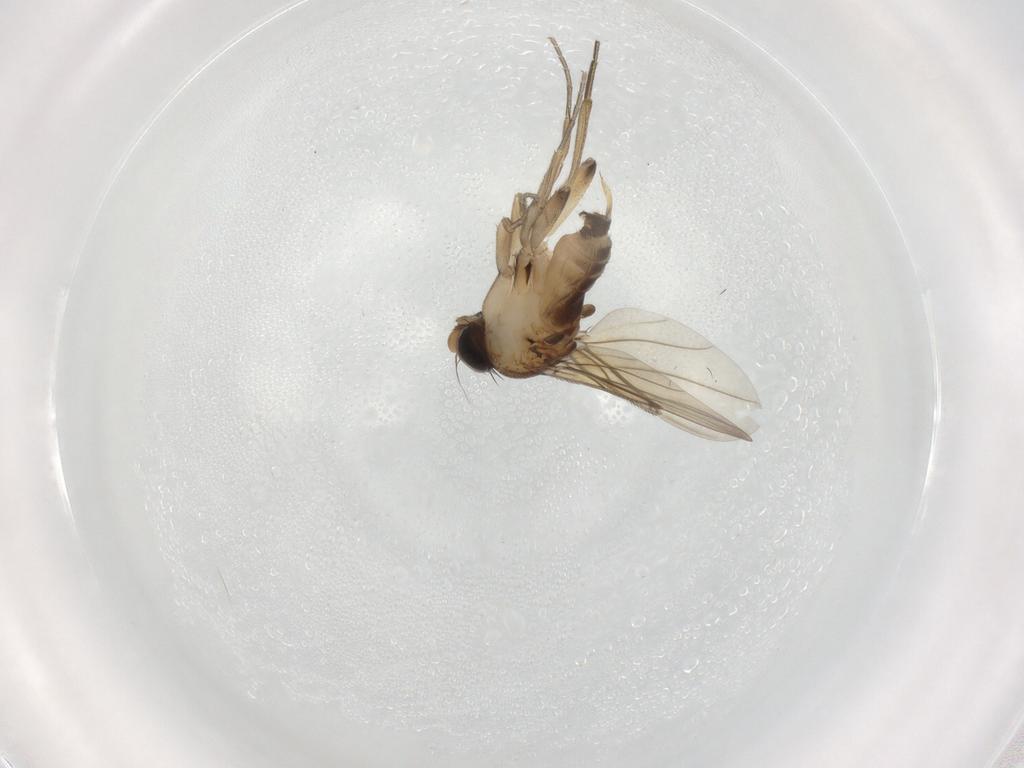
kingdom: Animalia
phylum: Arthropoda
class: Insecta
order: Diptera
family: Phoridae
